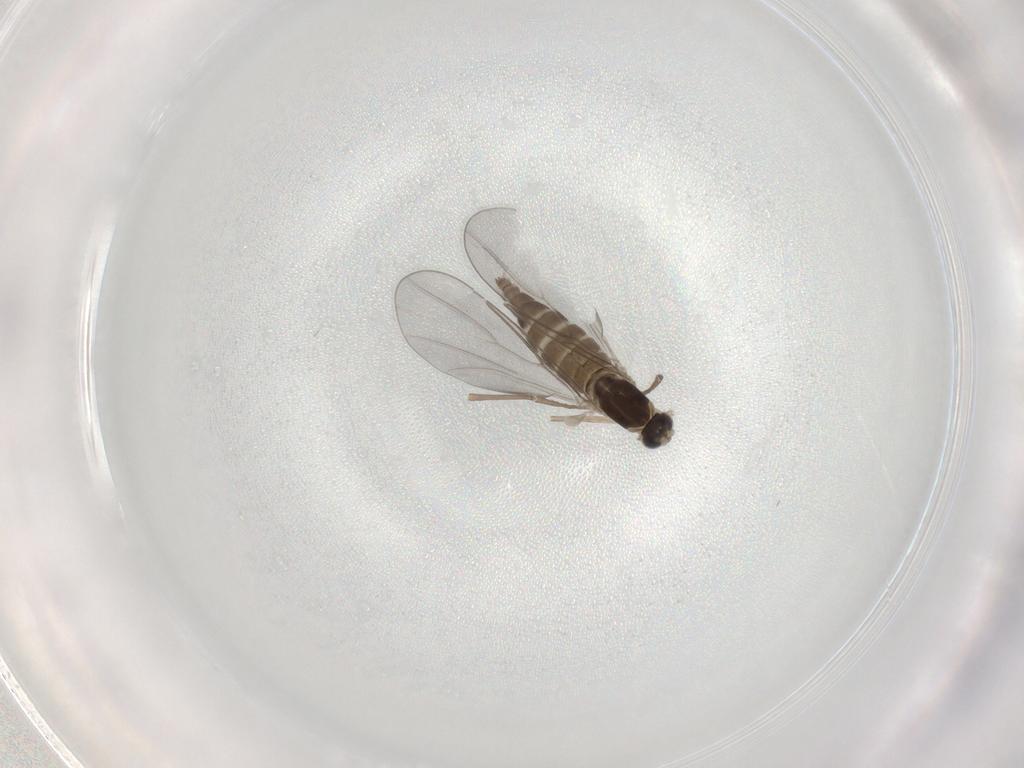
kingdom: Animalia
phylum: Arthropoda
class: Insecta
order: Diptera
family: Cecidomyiidae
